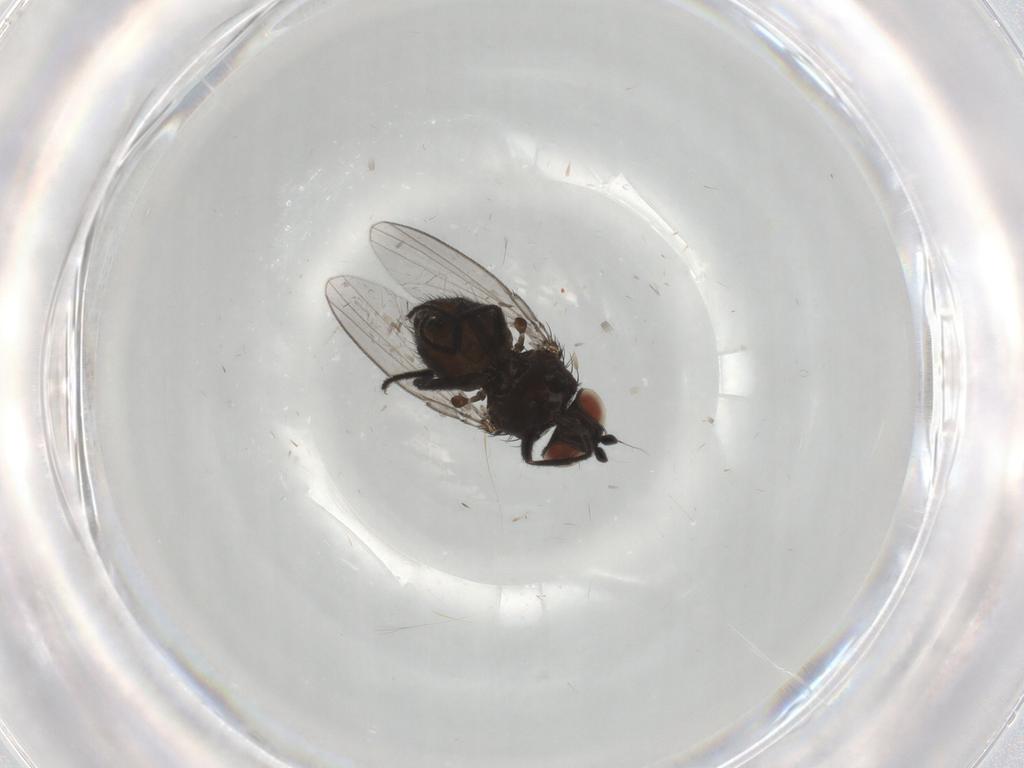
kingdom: Animalia
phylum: Arthropoda
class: Insecta
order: Diptera
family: Milichiidae
